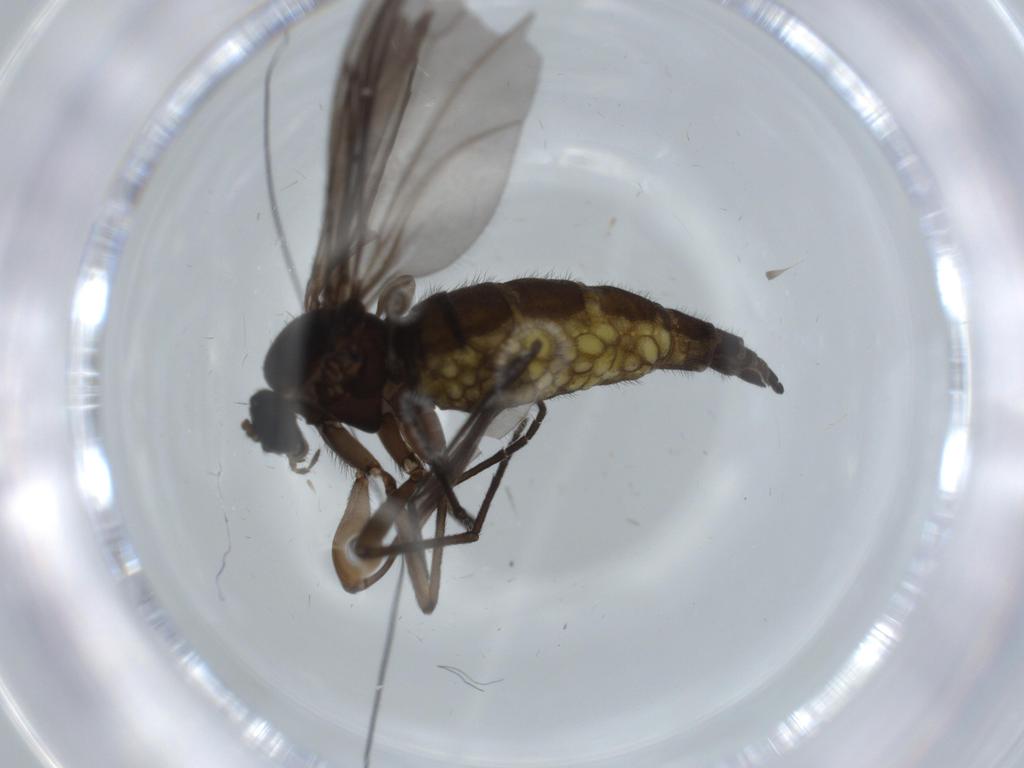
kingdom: Animalia
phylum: Arthropoda
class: Insecta
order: Diptera
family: Sciaridae
